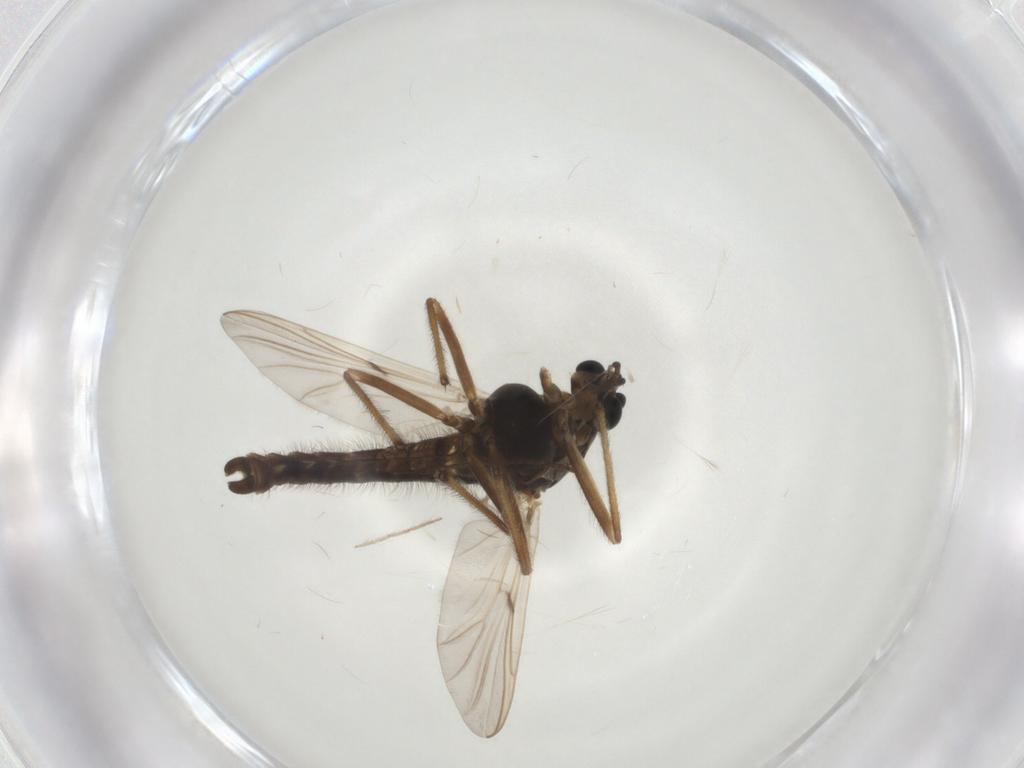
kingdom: Animalia
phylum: Arthropoda
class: Insecta
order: Diptera
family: Chironomidae
